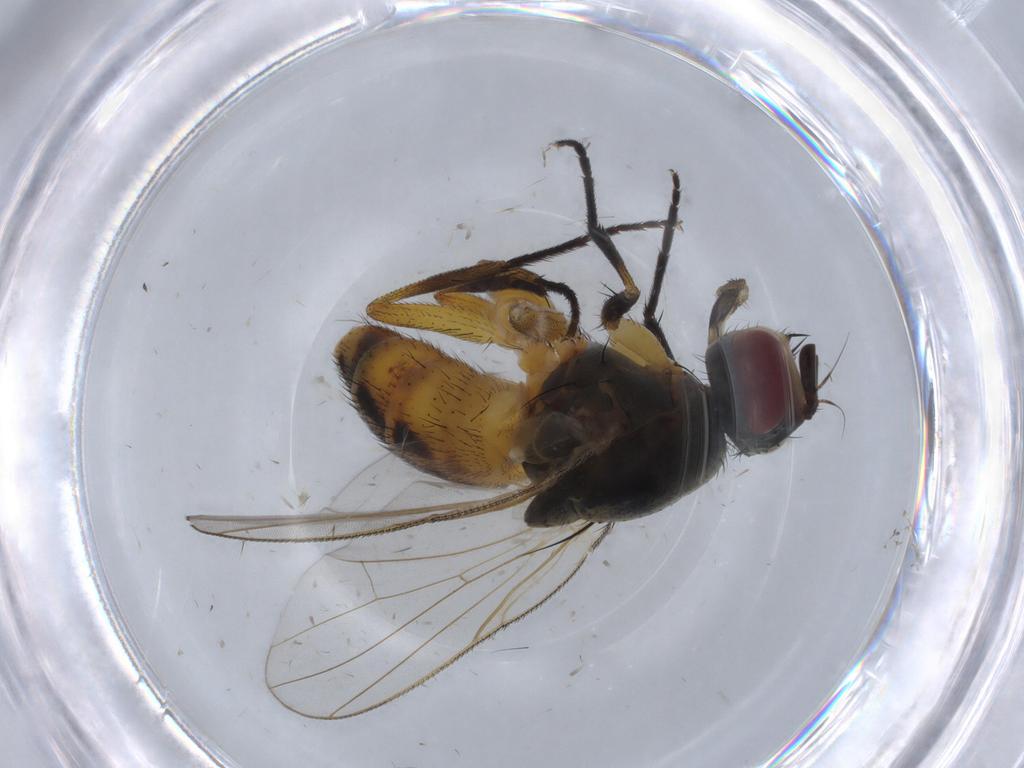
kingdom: Animalia
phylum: Arthropoda
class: Insecta
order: Diptera
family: Muscidae
